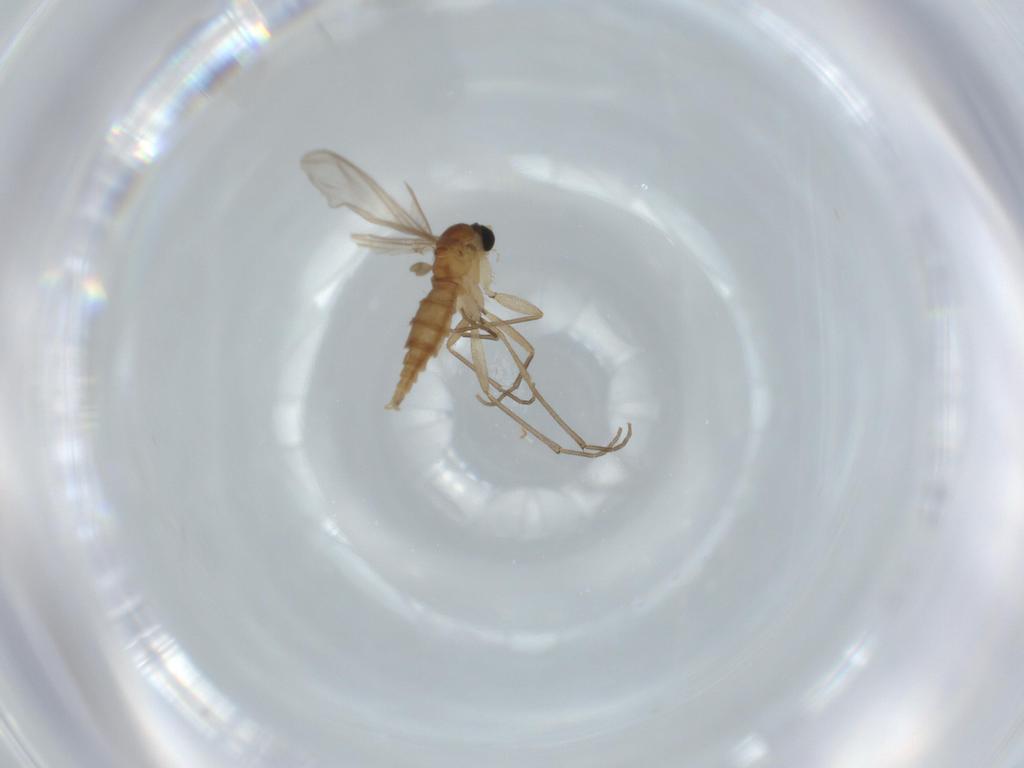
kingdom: Animalia
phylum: Arthropoda
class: Insecta
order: Diptera
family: Sciaridae
